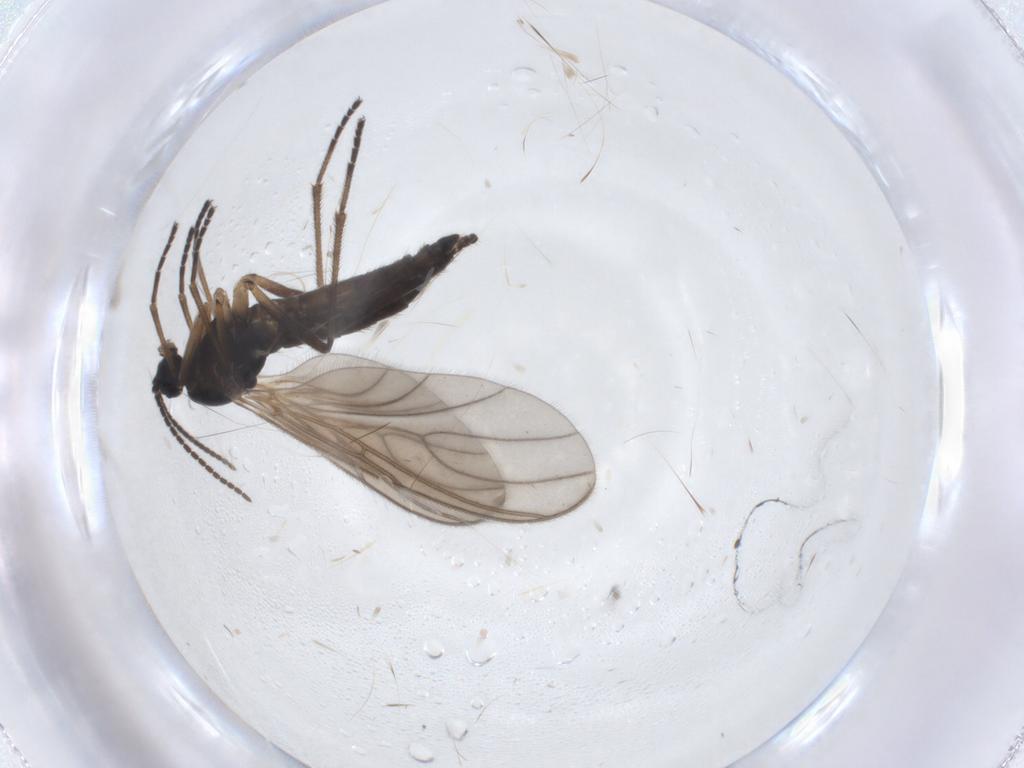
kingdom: Animalia
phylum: Arthropoda
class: Insecta
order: Diptera
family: Sciaridae
